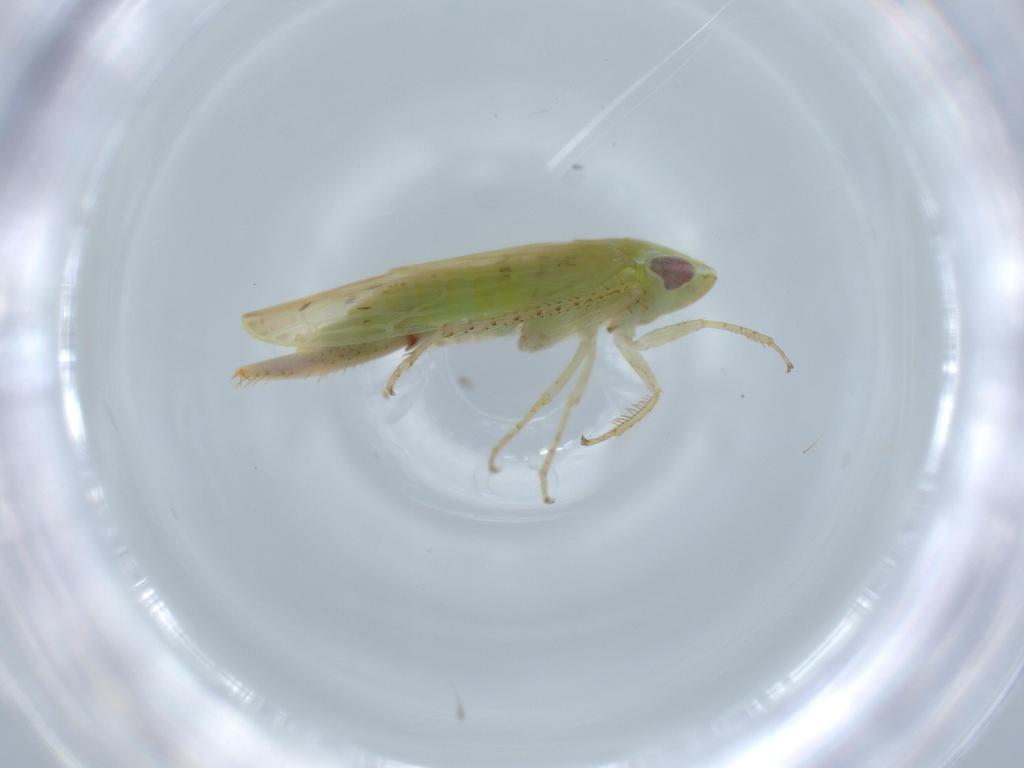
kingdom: Animalia
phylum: Arthropoda
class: Insecta
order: Hemiptera
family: Cicadellidae
